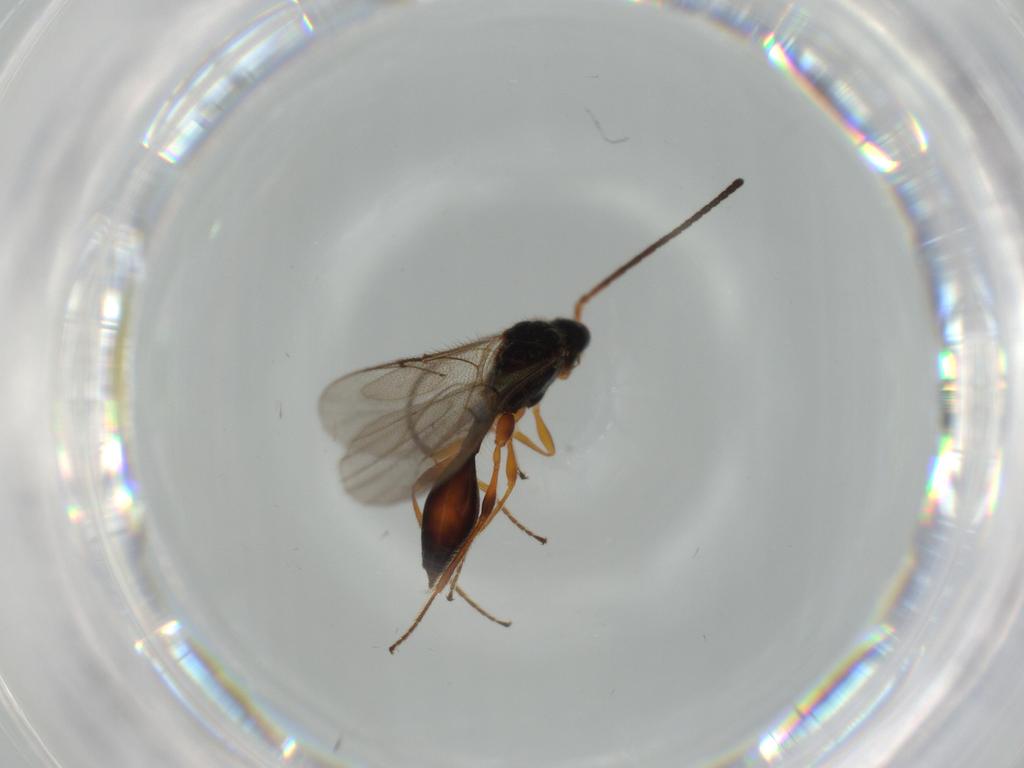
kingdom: Animalia
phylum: Arthropoda
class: Insecta
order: Hymenoptera
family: Diapriidae
